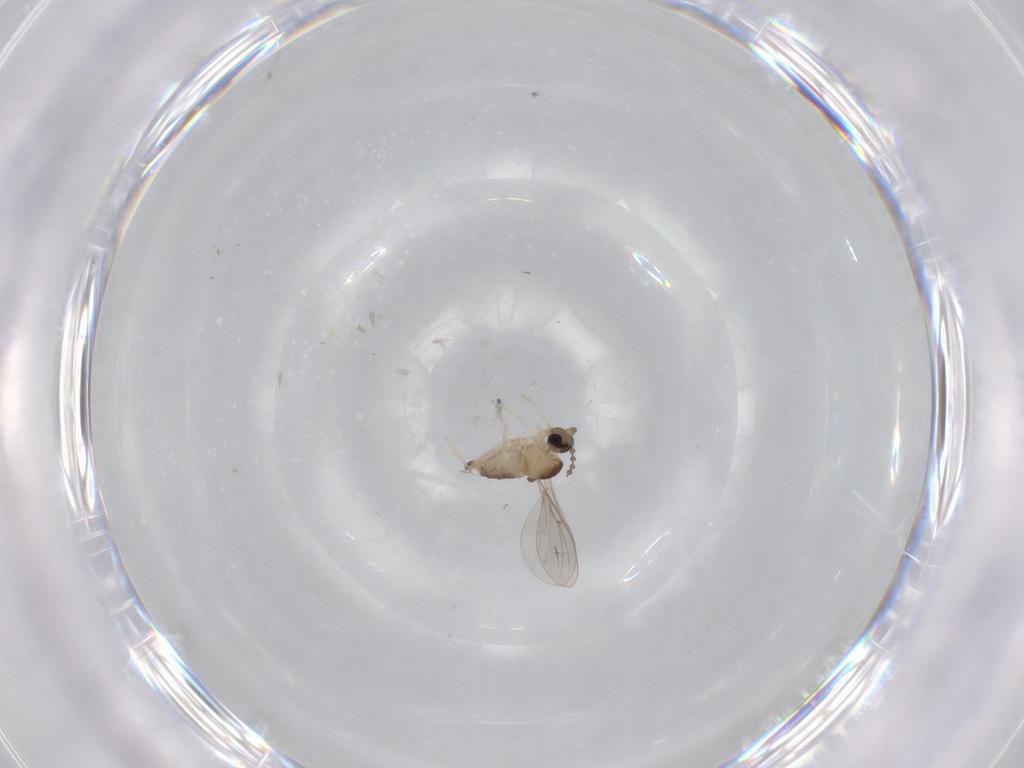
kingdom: Animalia
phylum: Arthropoda
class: Insecta
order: Diptera
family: Cecidomyiidae
